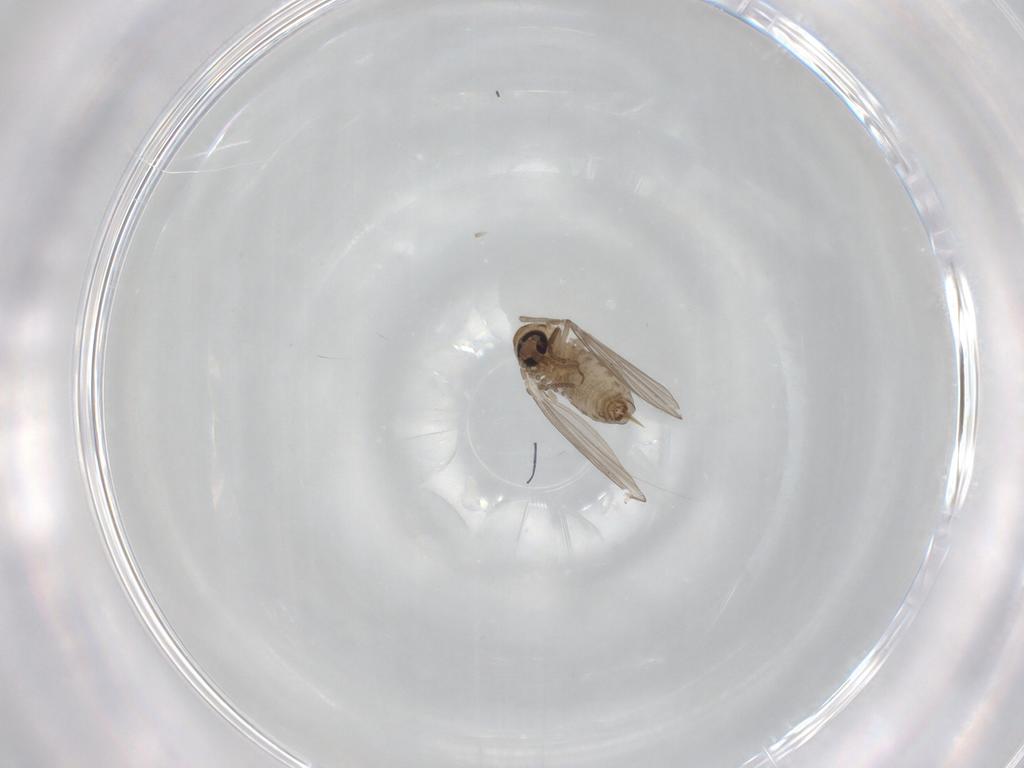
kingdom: Animalia
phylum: Arthropoda
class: Insecta
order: Diptera
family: Psychodidae
